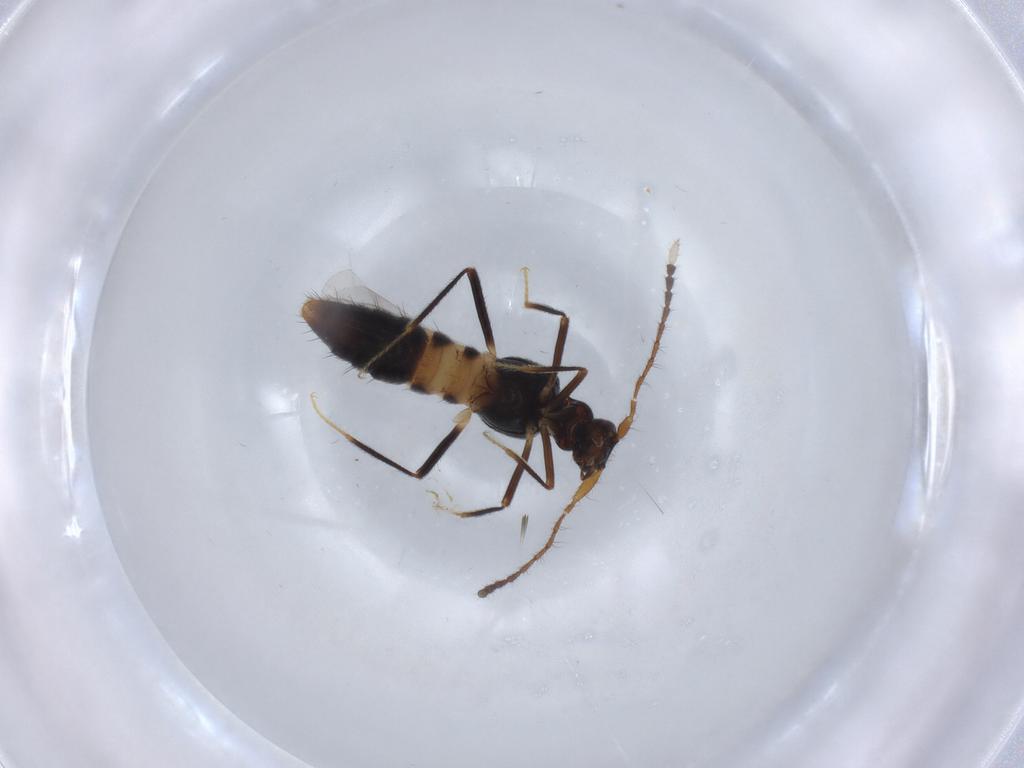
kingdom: Animalia
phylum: Arthropoda
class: Insecta
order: Coleoptera
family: Staphylinidae
